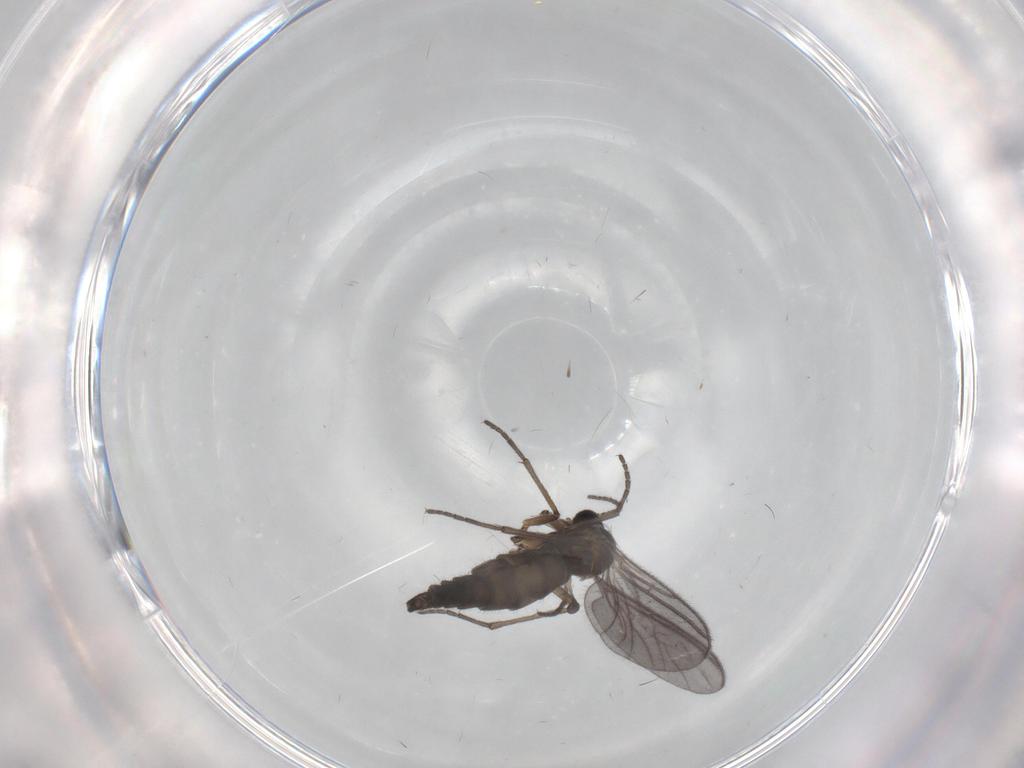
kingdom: Animalia
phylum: Arthropoda
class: Insecta
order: Diptera
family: Sciaridae
